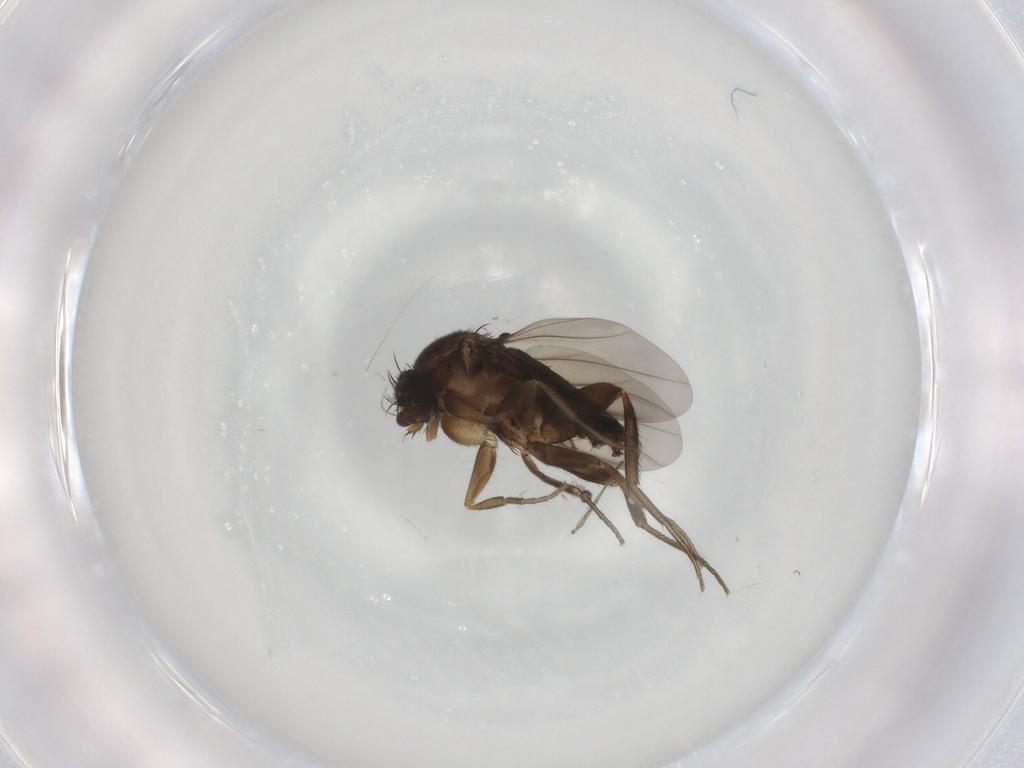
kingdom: Animalia
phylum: Arthropoda
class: Insecta
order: Diptera
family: Phoridae
